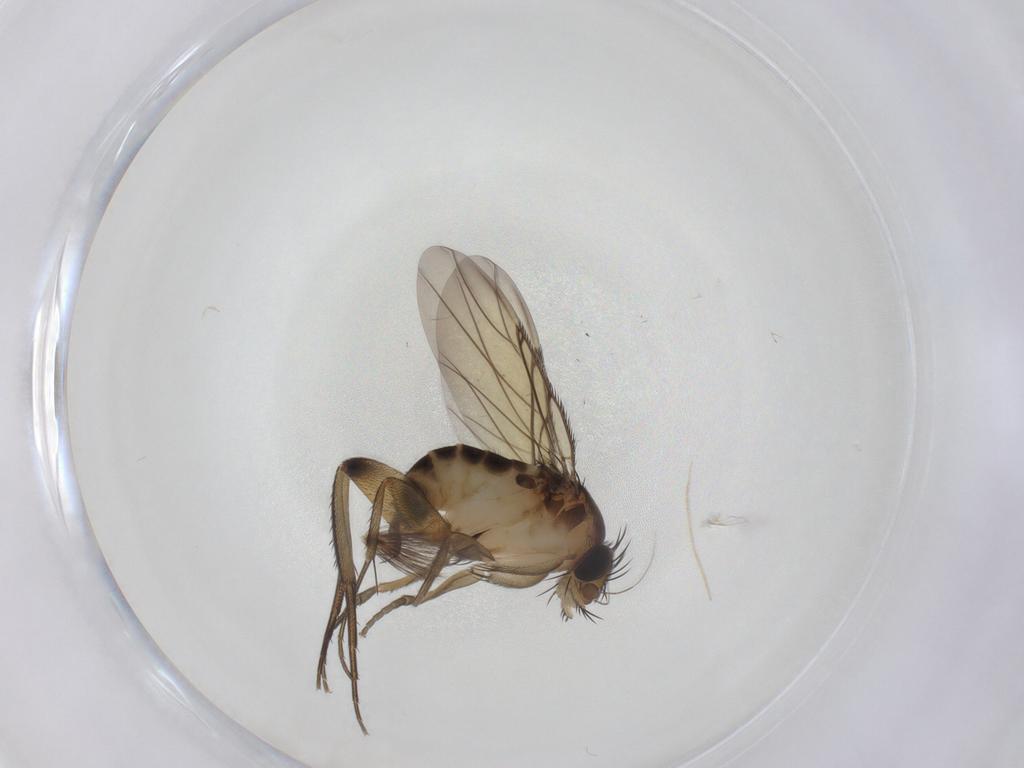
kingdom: Animalia
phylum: Arthropoda
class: Insecta
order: Diptera
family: Phoridae
